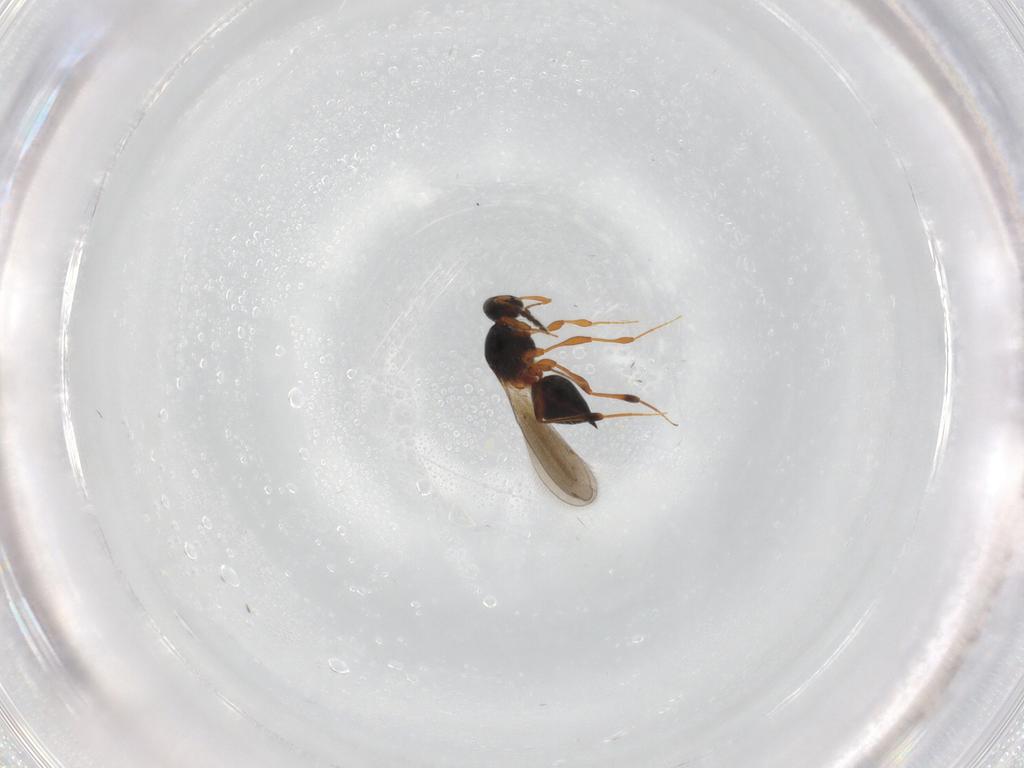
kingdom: Animalia
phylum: Arthropoda
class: Insecta
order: Hymenoptera
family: Platygastridae
